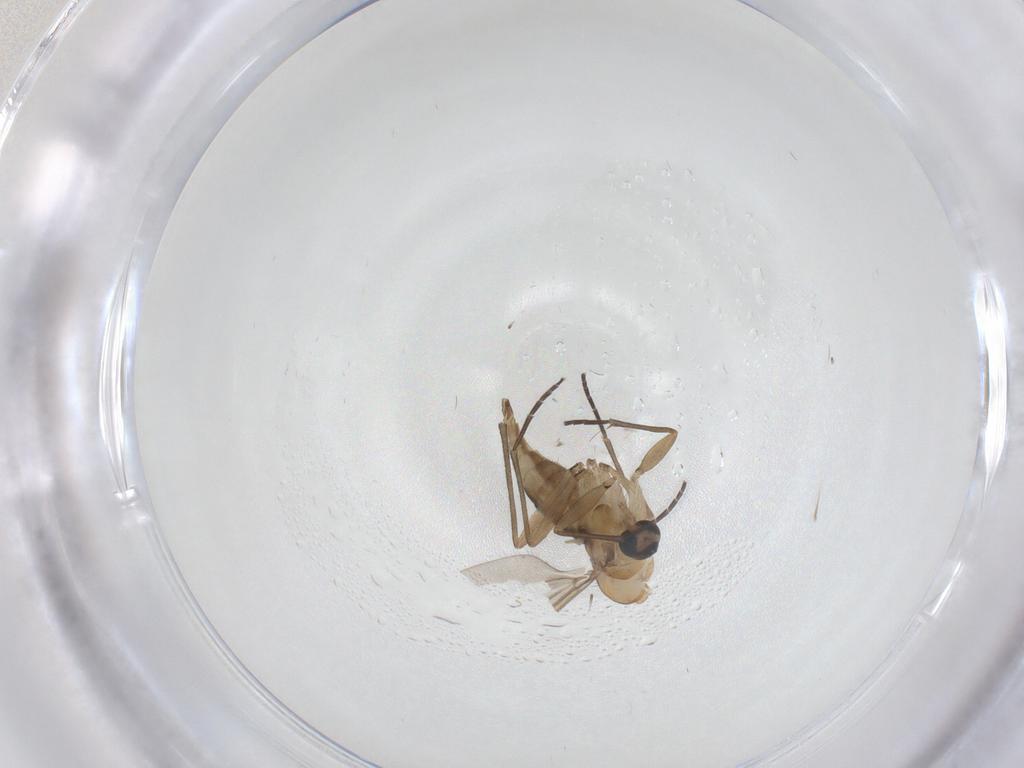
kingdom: Animalia
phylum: Arthropoda
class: Insecta
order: Diptera
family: Sciaridae
